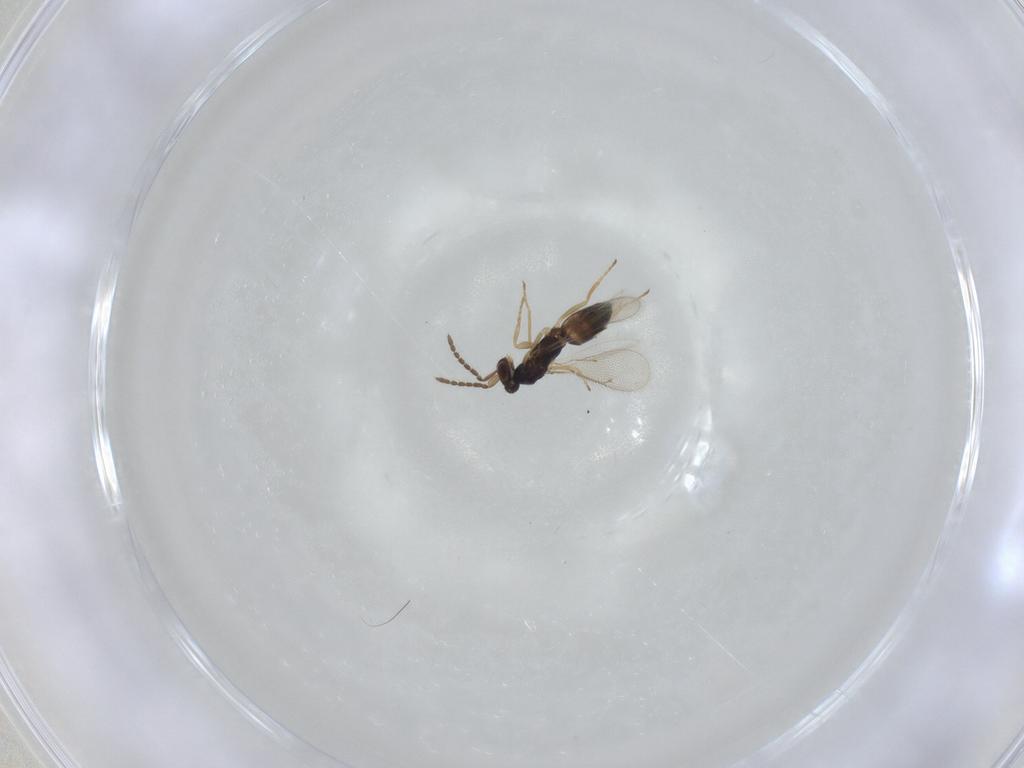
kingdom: Animalia
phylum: Arthropoda
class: Insecta
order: Hymenoptera
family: Eulophidae
